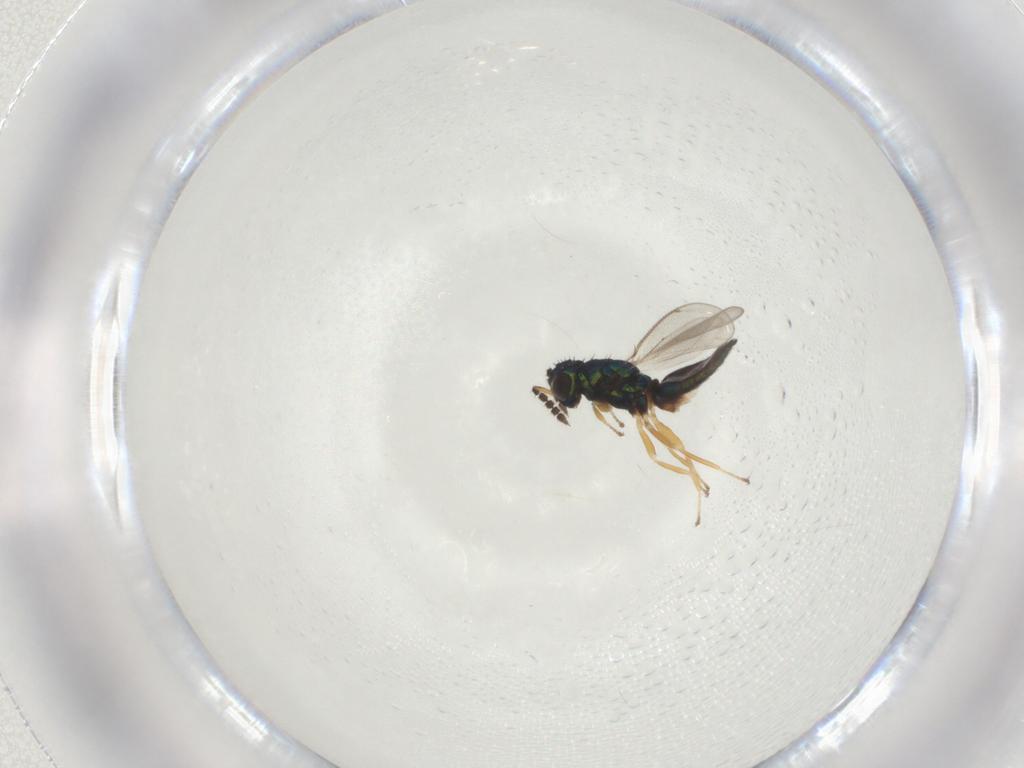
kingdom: Animalia
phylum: Arthropoda
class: Insecta
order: Hymenoptera
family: Eulophidae
